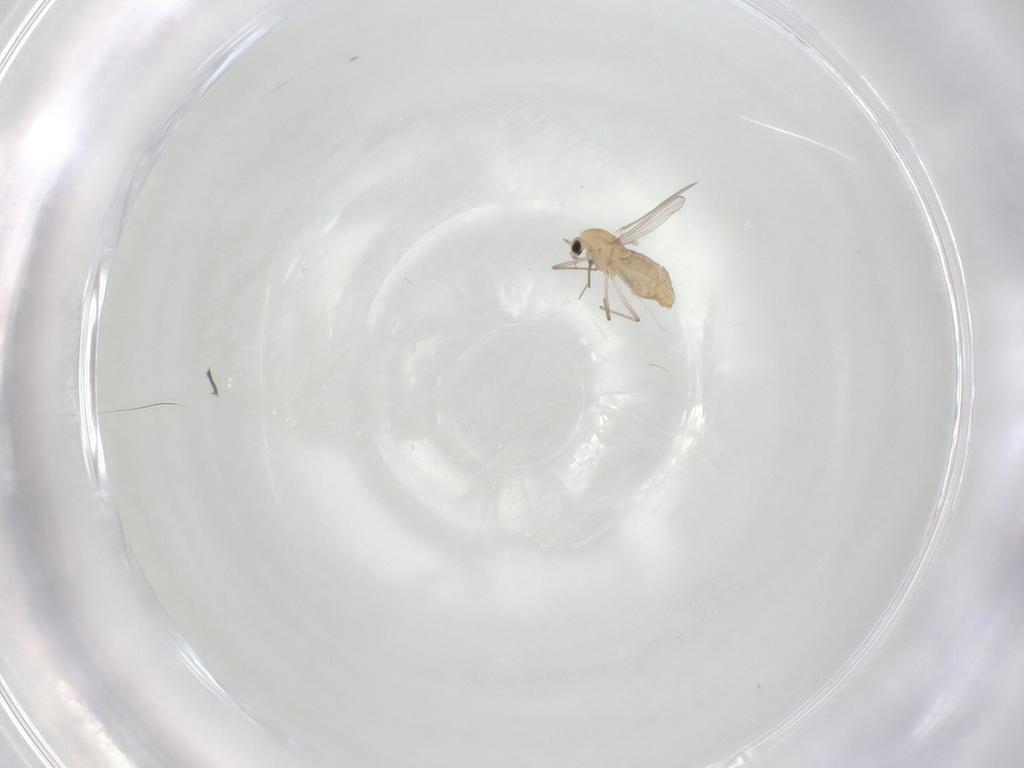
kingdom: Animalia
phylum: Arthropoda
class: Insecta
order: Diptera
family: Chironomidae
